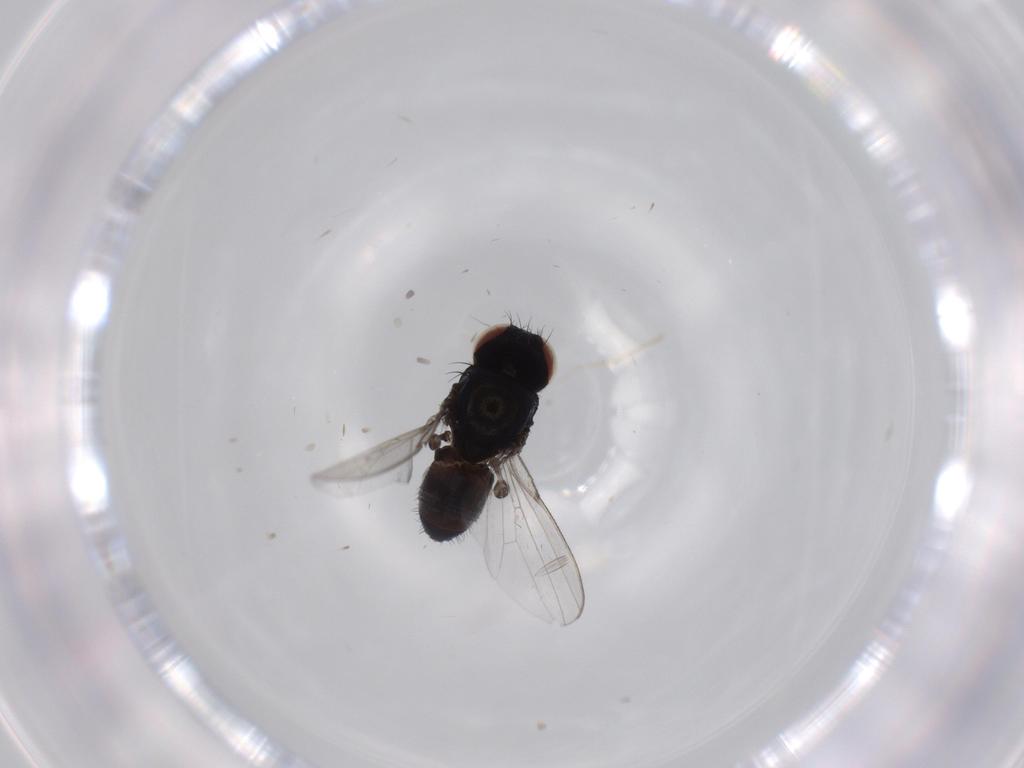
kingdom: Animalia
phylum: Arthropoda
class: Insecta
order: Diptera
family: Milichiidae
